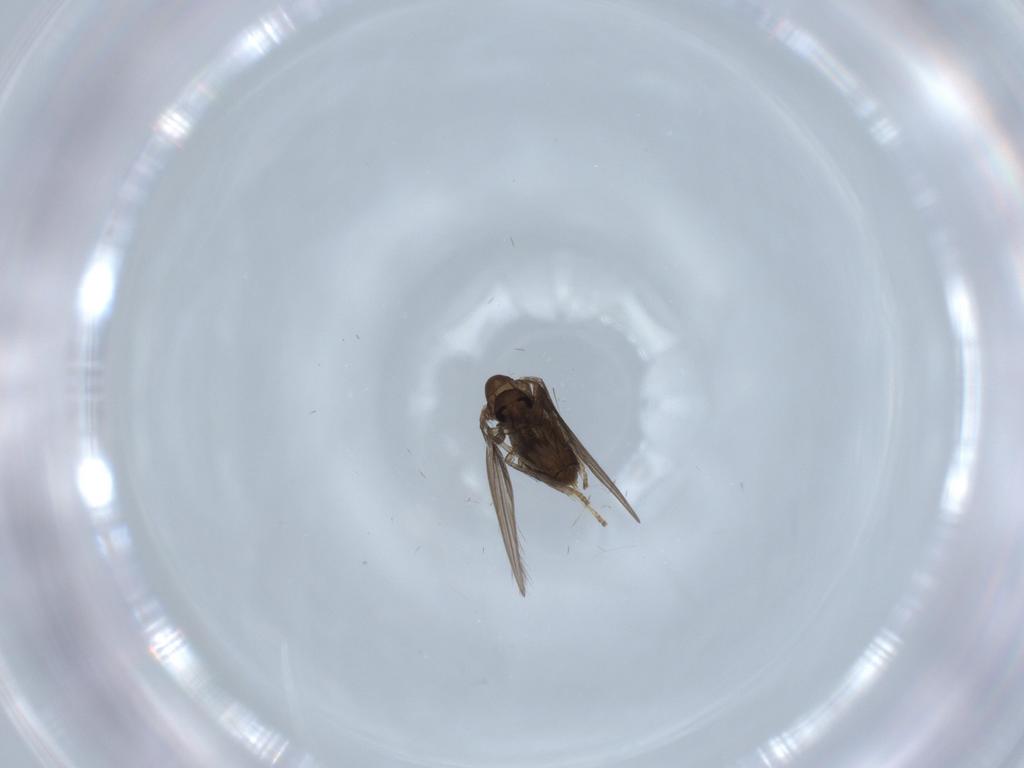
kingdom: Animalia
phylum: Arthropoda
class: Insecta
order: Diptera
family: Psychodidae
